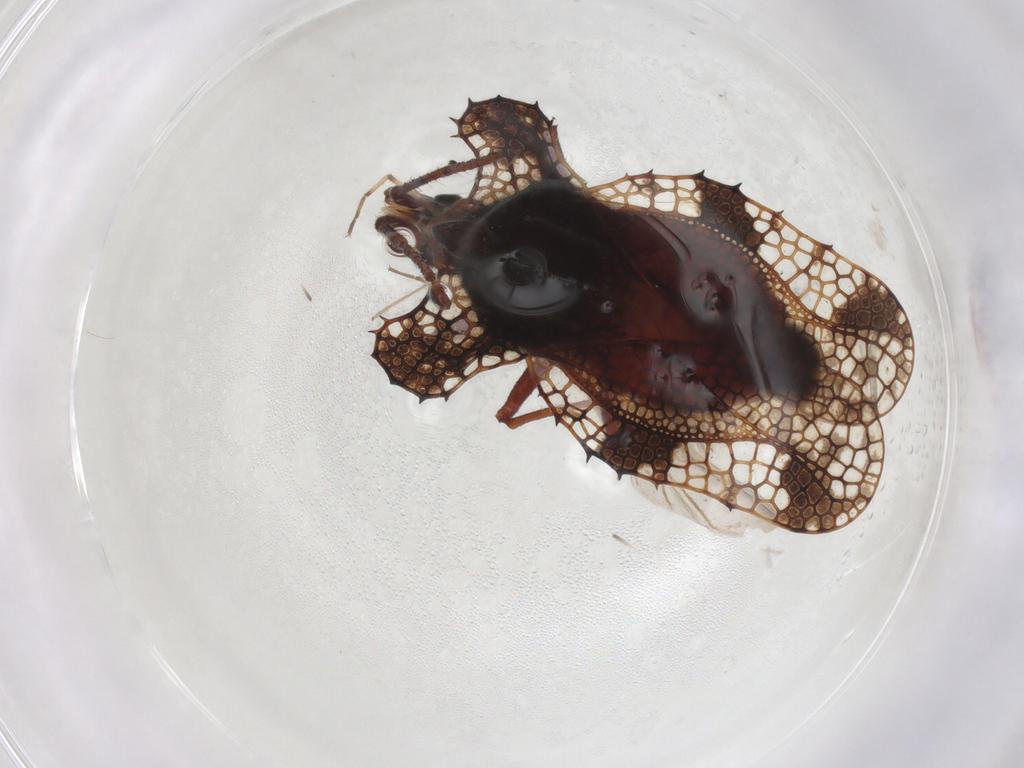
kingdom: Animalia
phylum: Arthropoda
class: Insecta
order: Hemiptera
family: Tingidae
